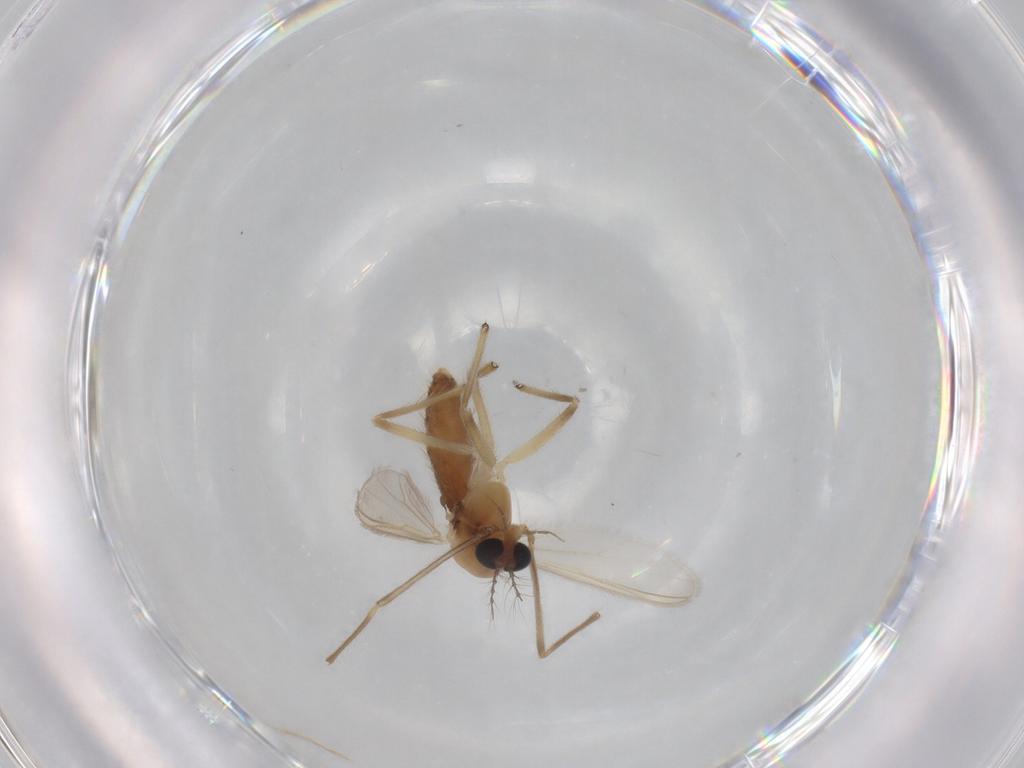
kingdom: Animalia
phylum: Arthropoda
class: Insecta
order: Diptera
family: Chironomidae
